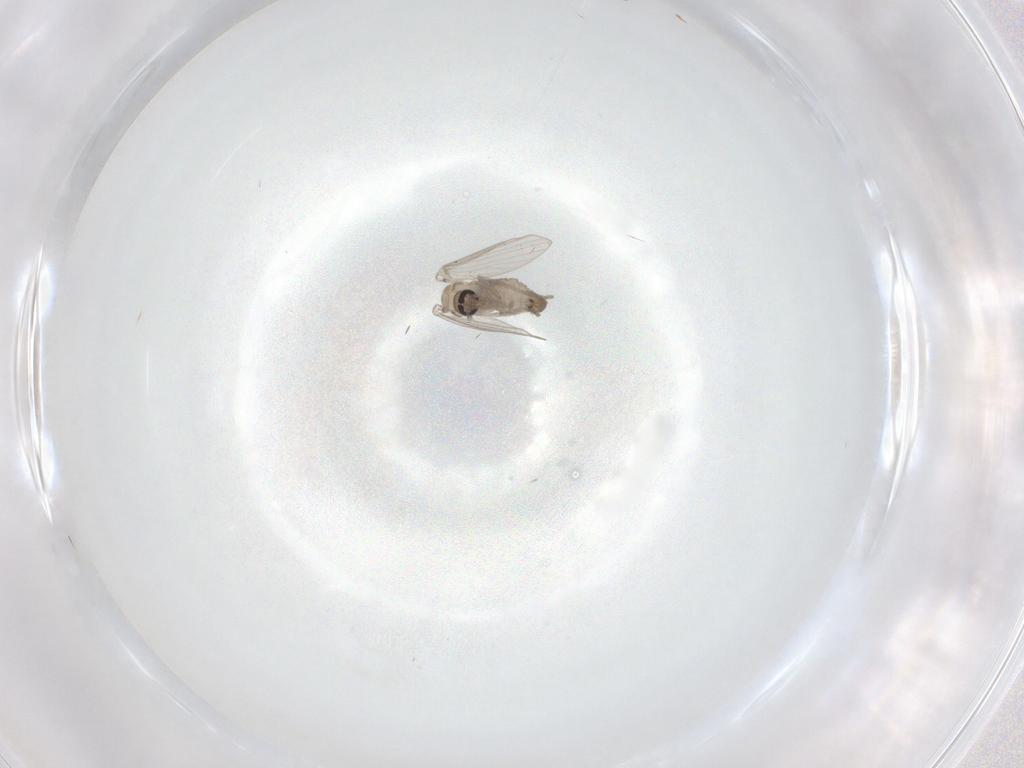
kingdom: Animalia
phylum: Arthropoda
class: Insecta
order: Diptera
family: Psychodidae
